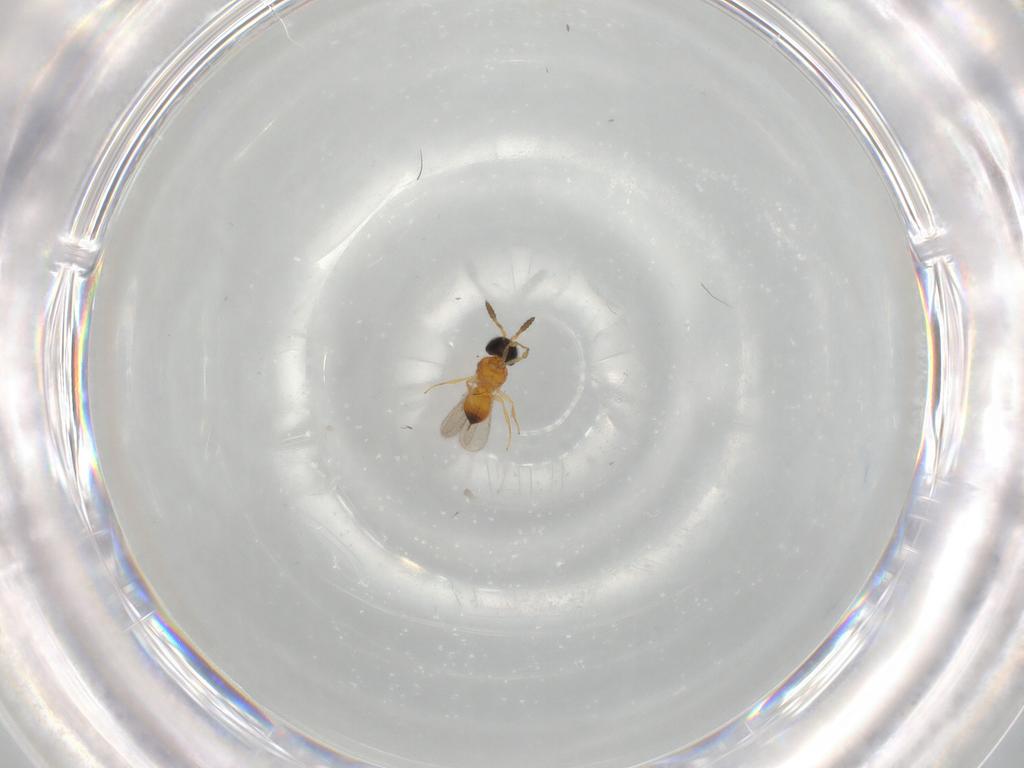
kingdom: Animalia
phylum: Arthropoda
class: Insecta
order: Hymenoptera
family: Scelionidae
